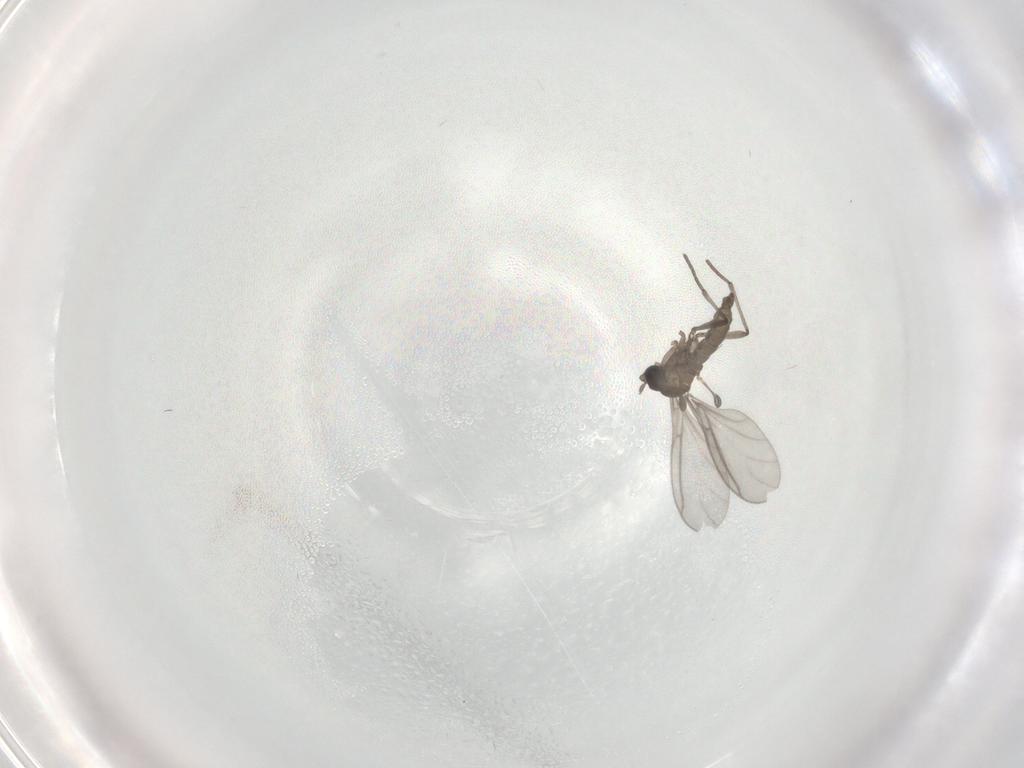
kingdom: Animalia
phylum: Arthropoda
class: Insecta
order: Diptera
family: Sciaridae
